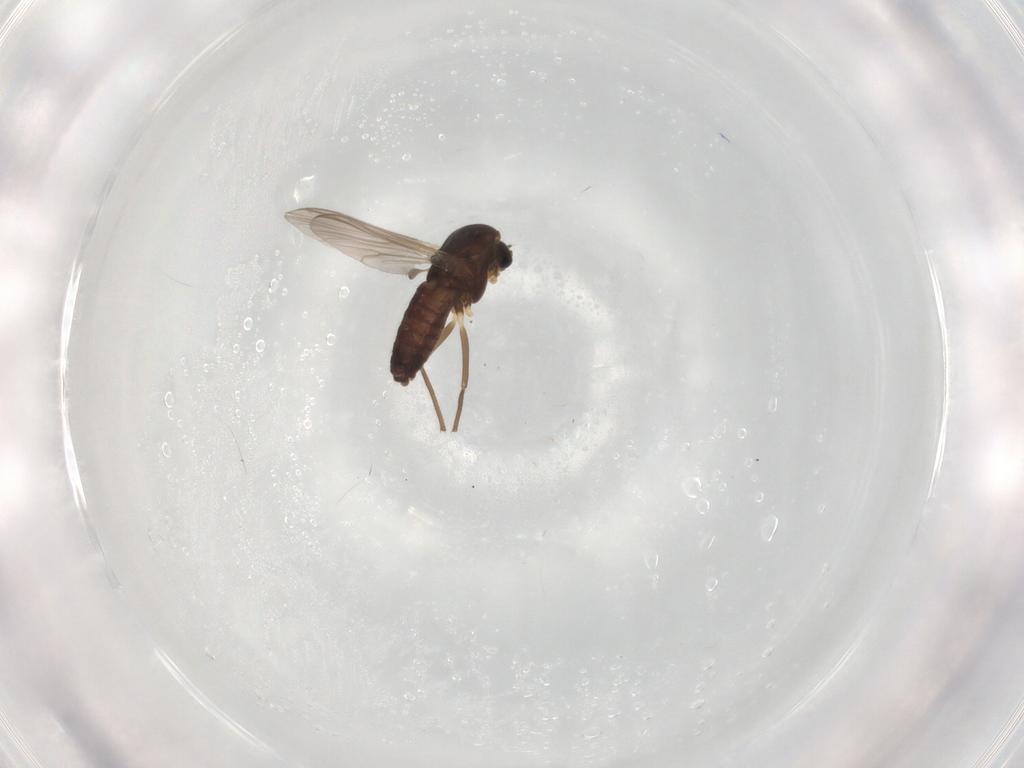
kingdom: Animalia
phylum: Arthropoda
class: Insecta
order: Diptera
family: Chironomidae
